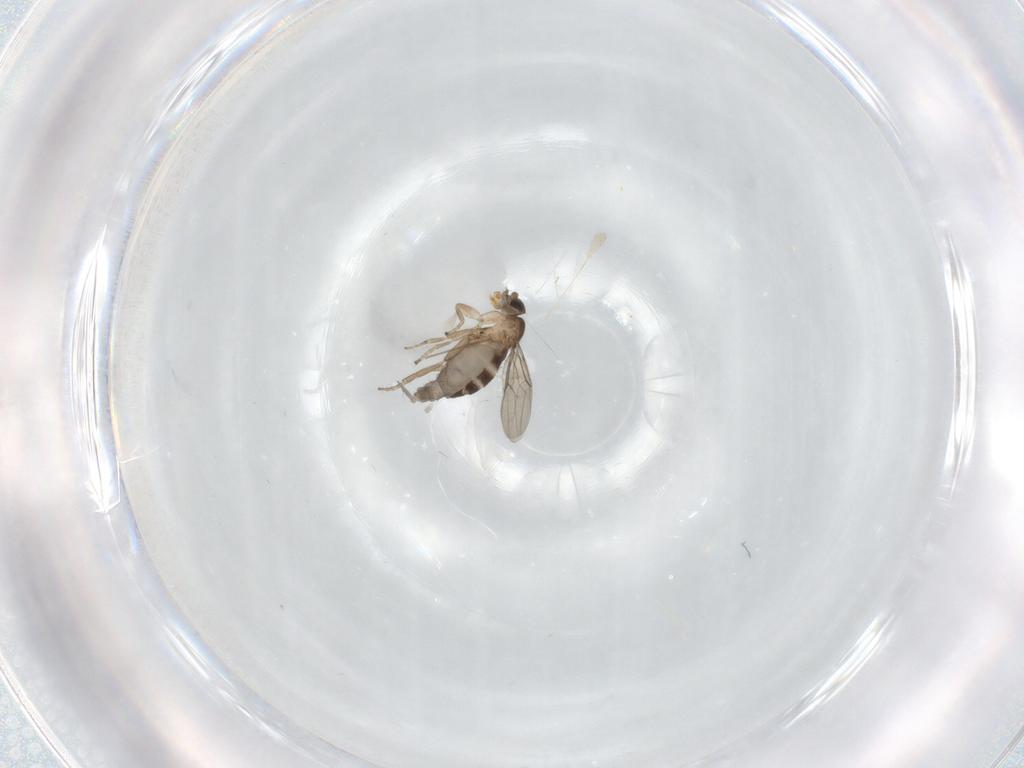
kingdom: Animalia
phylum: Arthropoda
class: Insecta
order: Diptera
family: Phoridae
